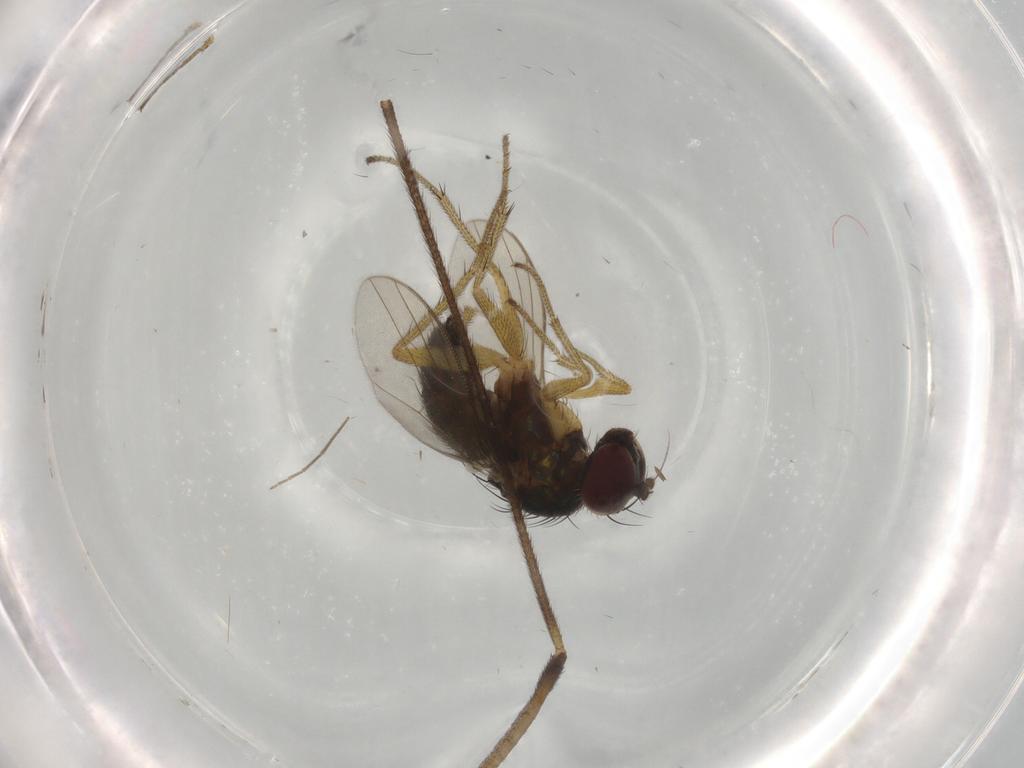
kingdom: Animalia
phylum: Arthropoda
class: Insecta
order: Diptera
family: Dolichopodidae
